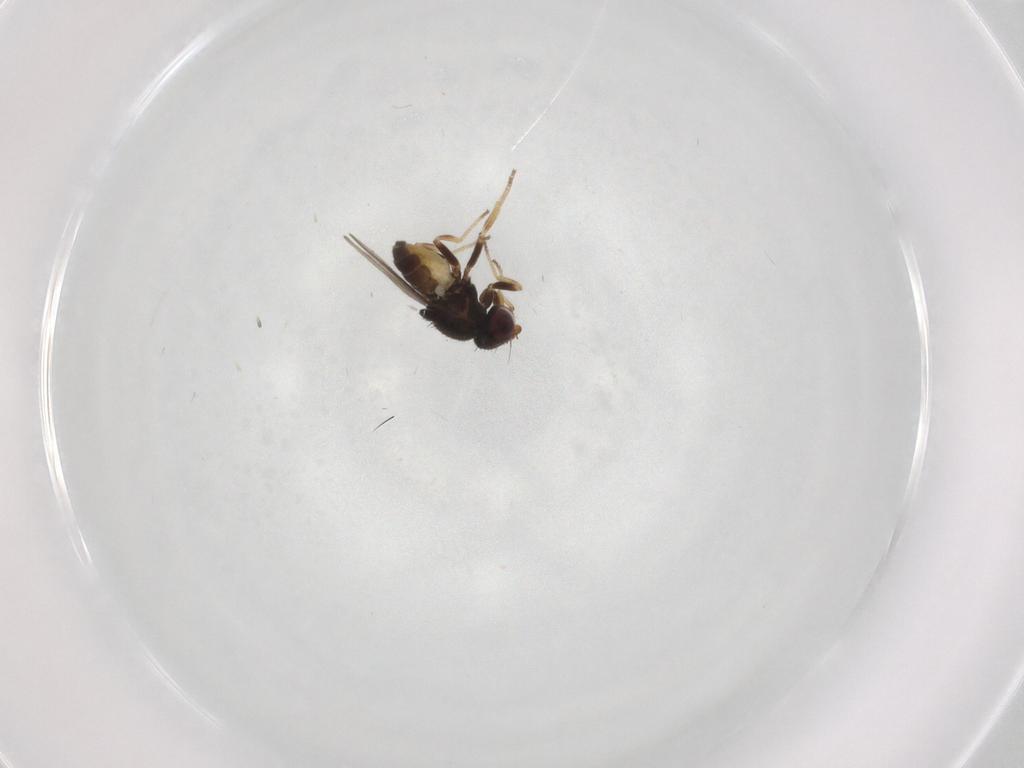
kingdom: Animalia
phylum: Arthropoda
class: Insecta
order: Diptera
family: Chloropidae
